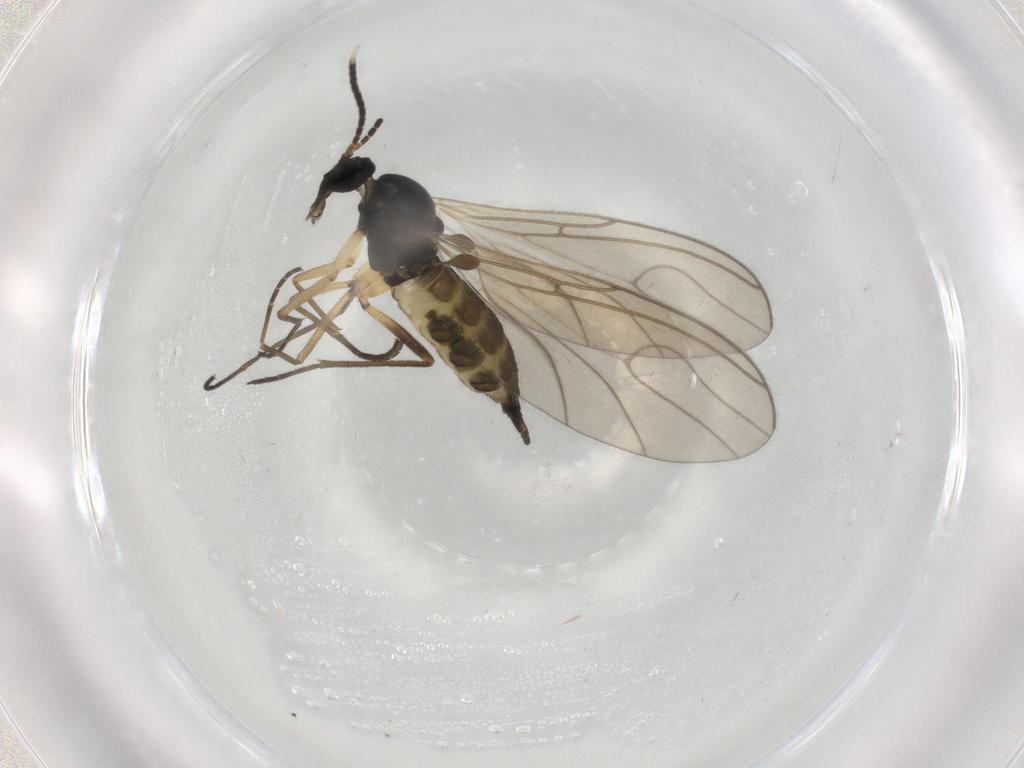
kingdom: Animalia
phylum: Arthropoda
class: Insecta
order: Diptera
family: Sciaridae
